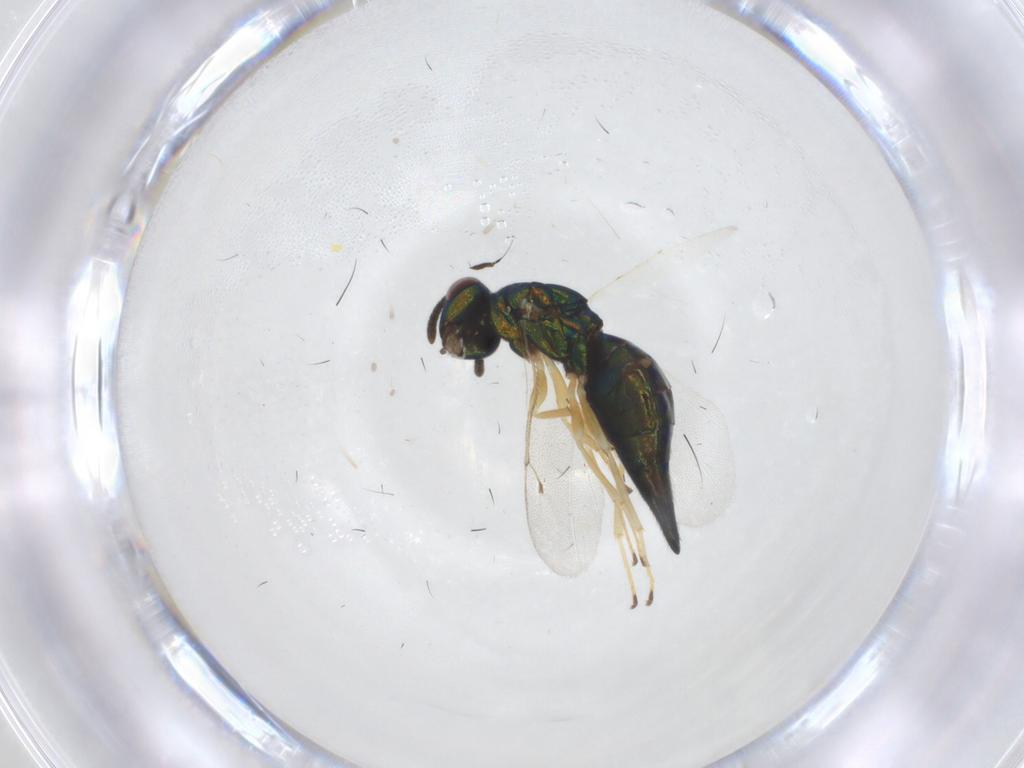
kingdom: Animalia
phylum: Arthropoda
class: Insecta
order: Hymenoptera
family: Pteromalidae
